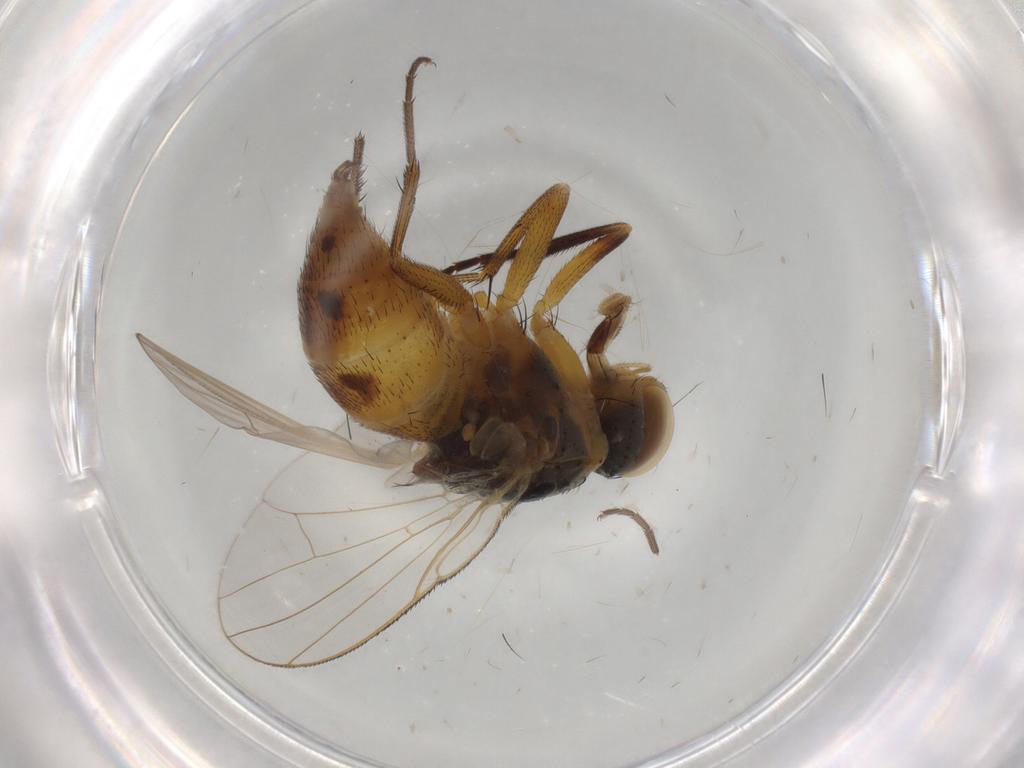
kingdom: Animalia
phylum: Arthropoda
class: Insecta
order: Diptera
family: Muscidae
